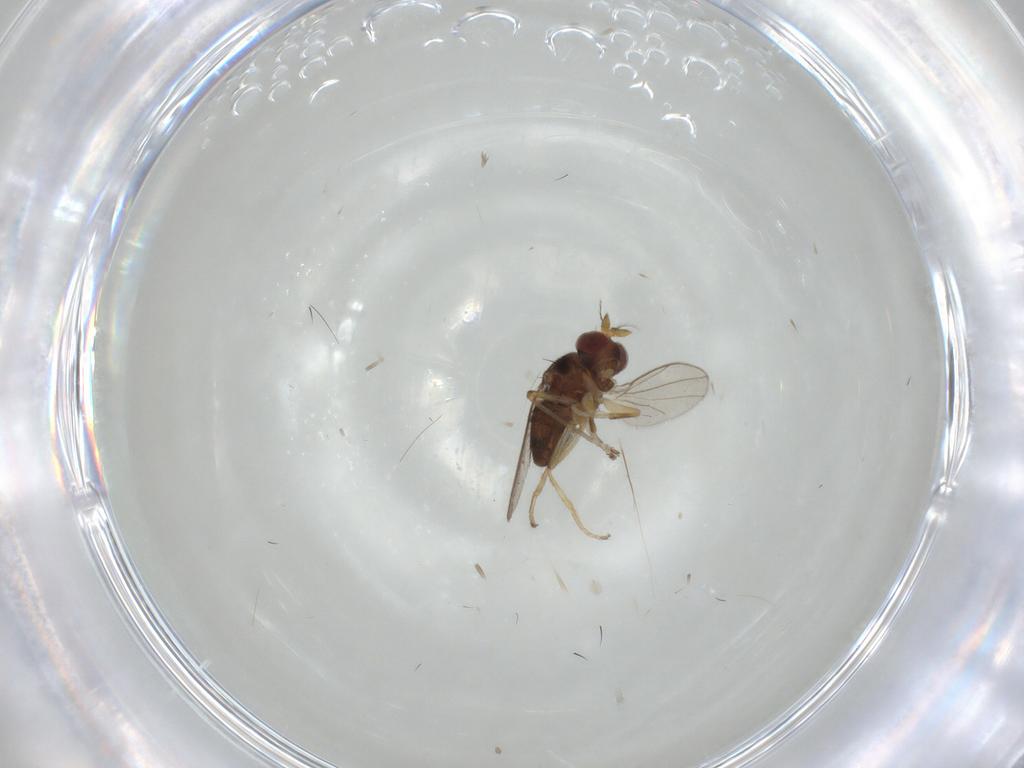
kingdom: Animalia
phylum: Arthropoda
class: Insecta
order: Diptera
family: Ephydridae
